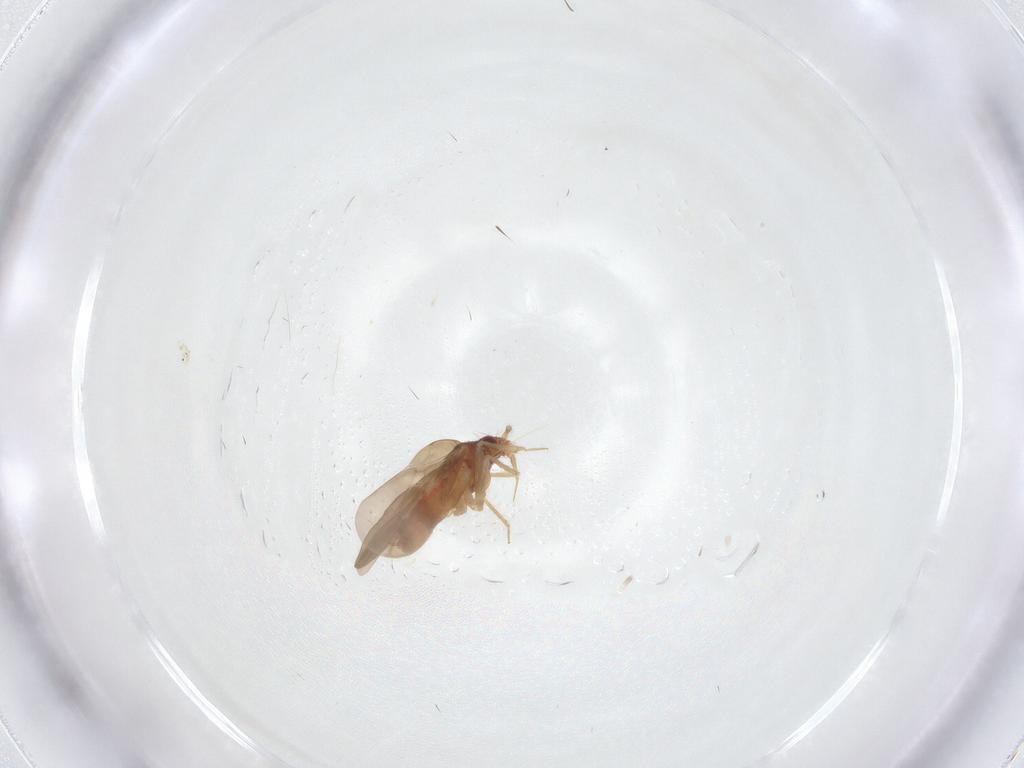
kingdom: Animalia
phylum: Arthropoda
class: Insecta
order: Hemiptera
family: Ceratocombidae
